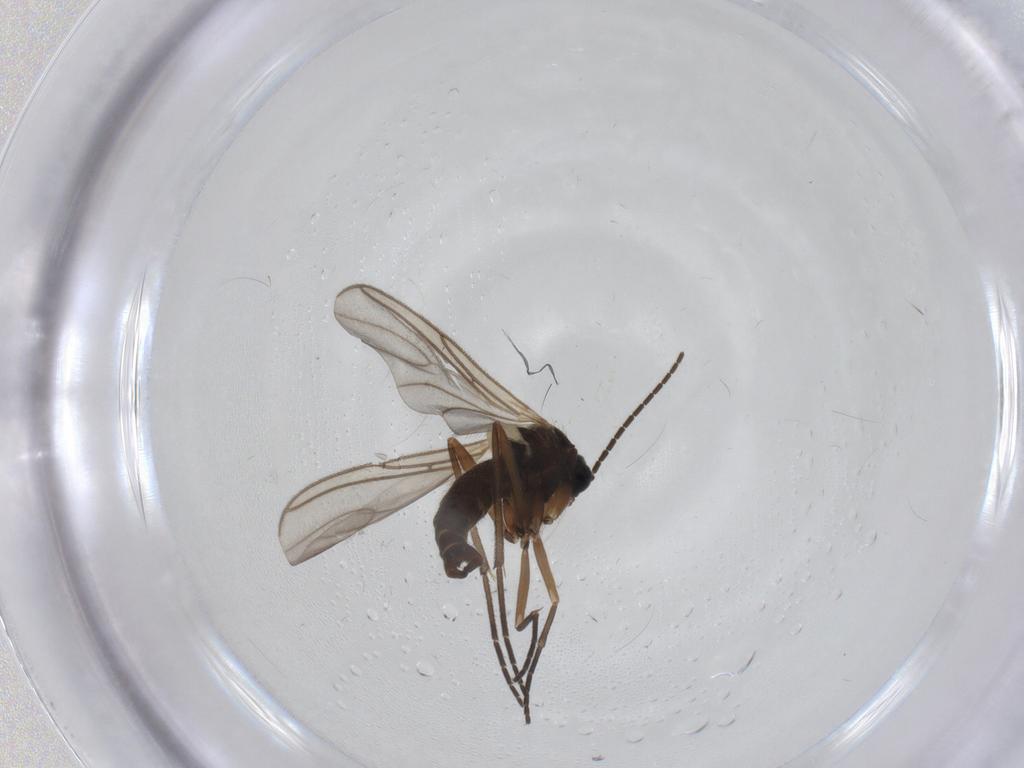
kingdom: Animalia
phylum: Arthropoda
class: Insecta
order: Diptera
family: Sciaridae
